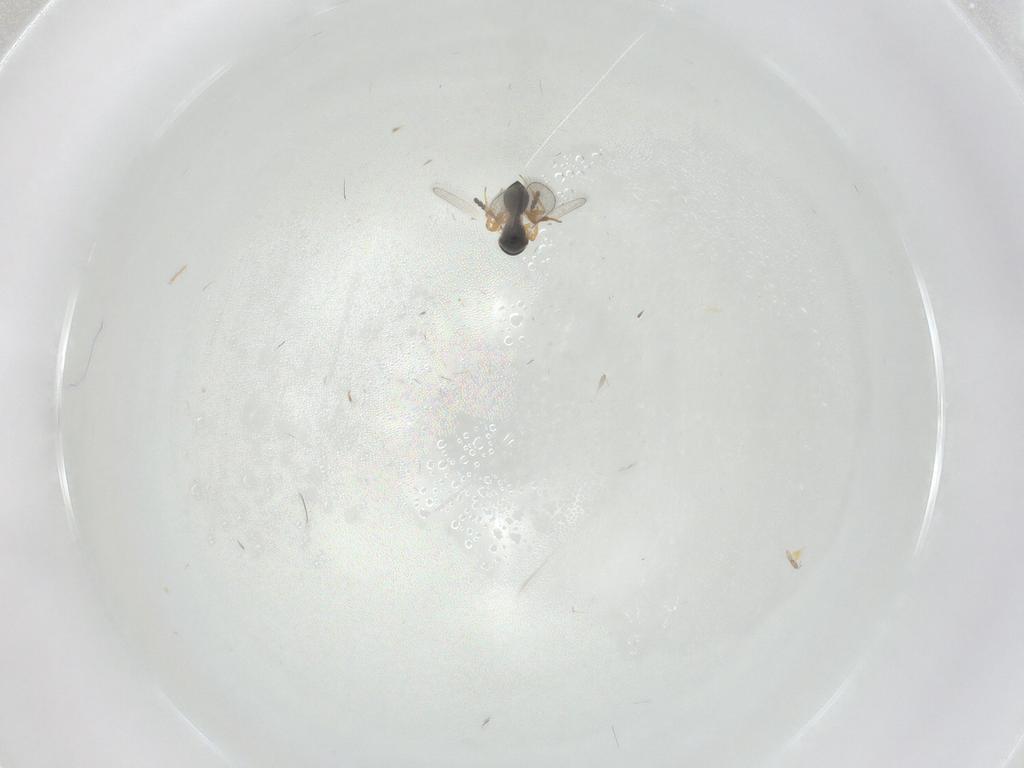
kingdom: Animalia
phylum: Arthropoda
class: Insecta
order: Hymenoptera
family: Platygastridae
